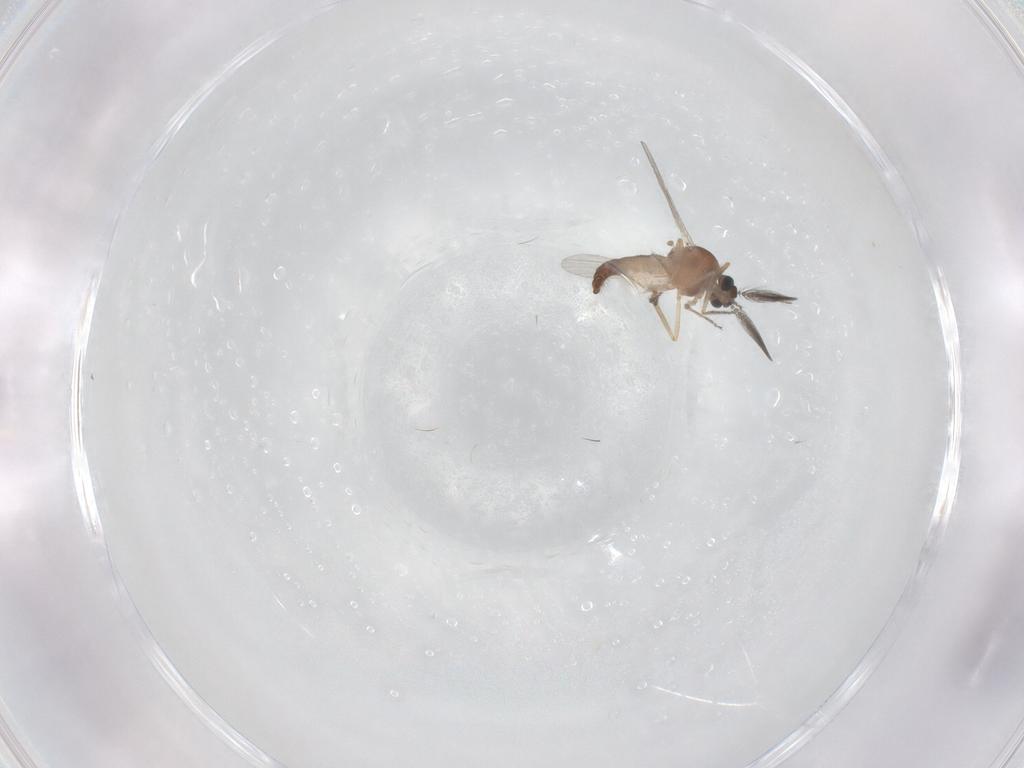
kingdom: Animalia
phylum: Arthropoda
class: Insecta
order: Diptera
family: Ceratopogonidae
